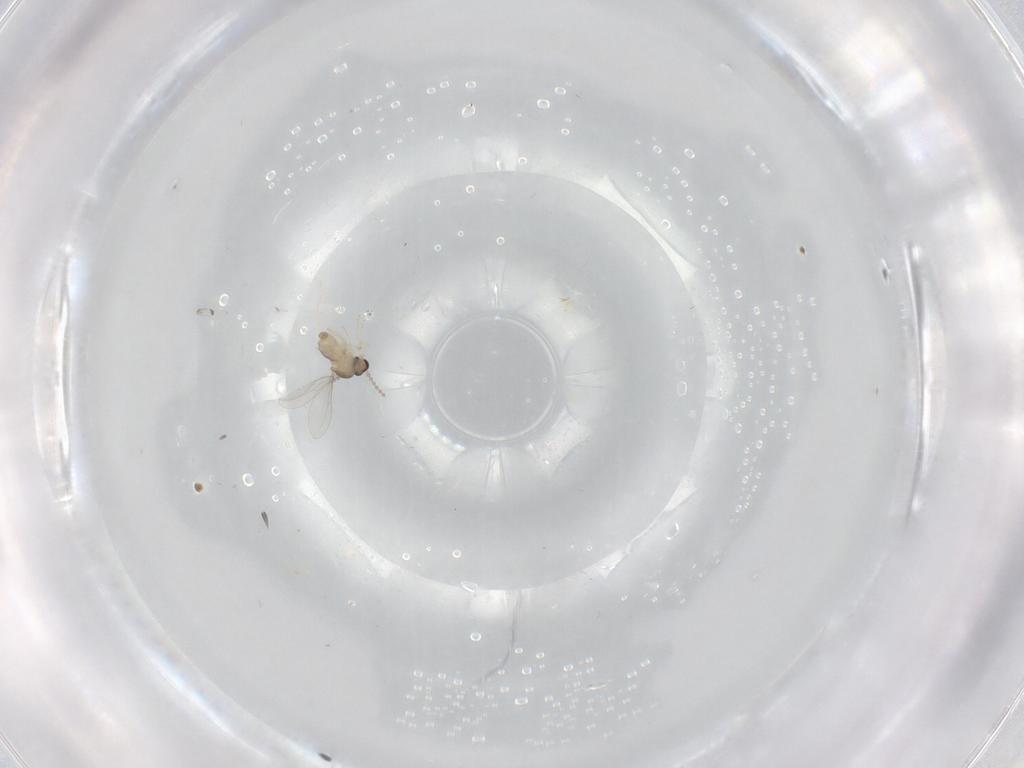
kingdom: Animalia
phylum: Arthropoda
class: Insecta
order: Diptera
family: Cecidomyiidae
